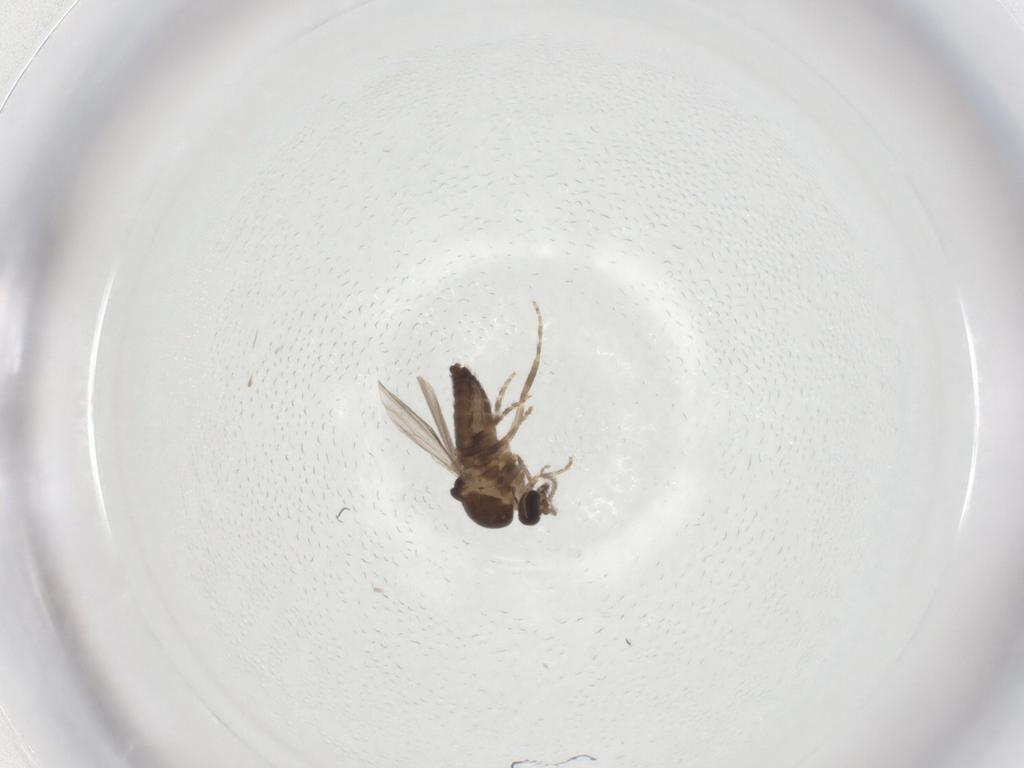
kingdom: Animalia
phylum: Arthropoda
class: Insecta
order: Diptera
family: Ceratopogonidae
